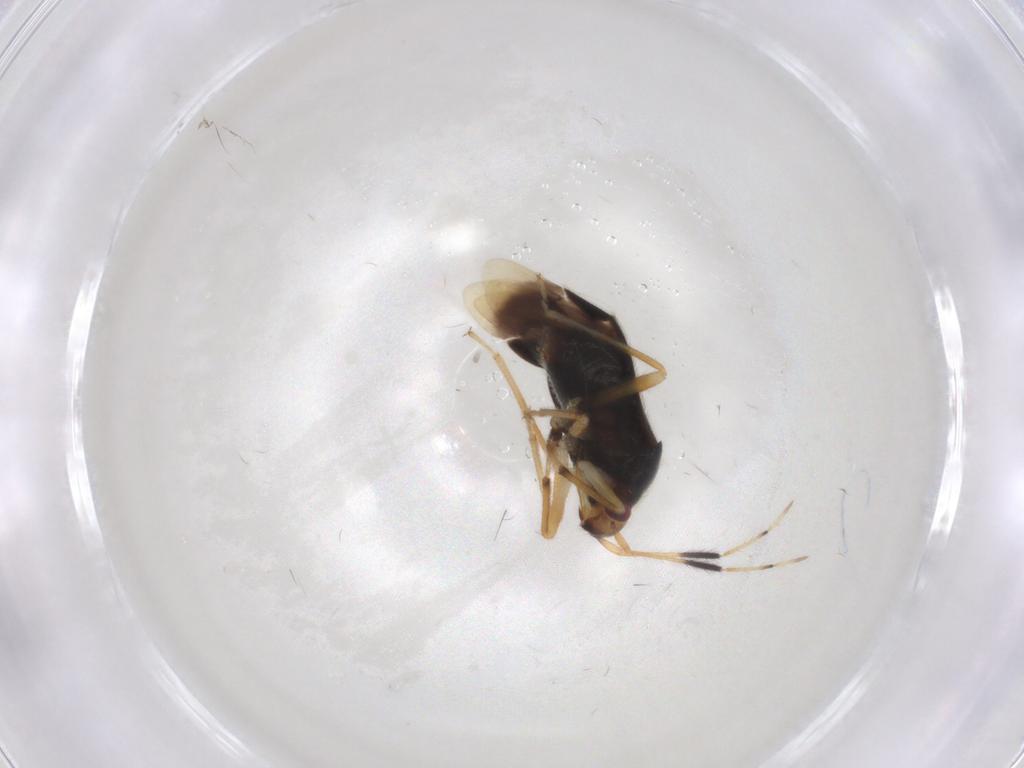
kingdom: Animalia
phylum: Arthropoda
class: Insecta
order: Hemiptera
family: Miridae
